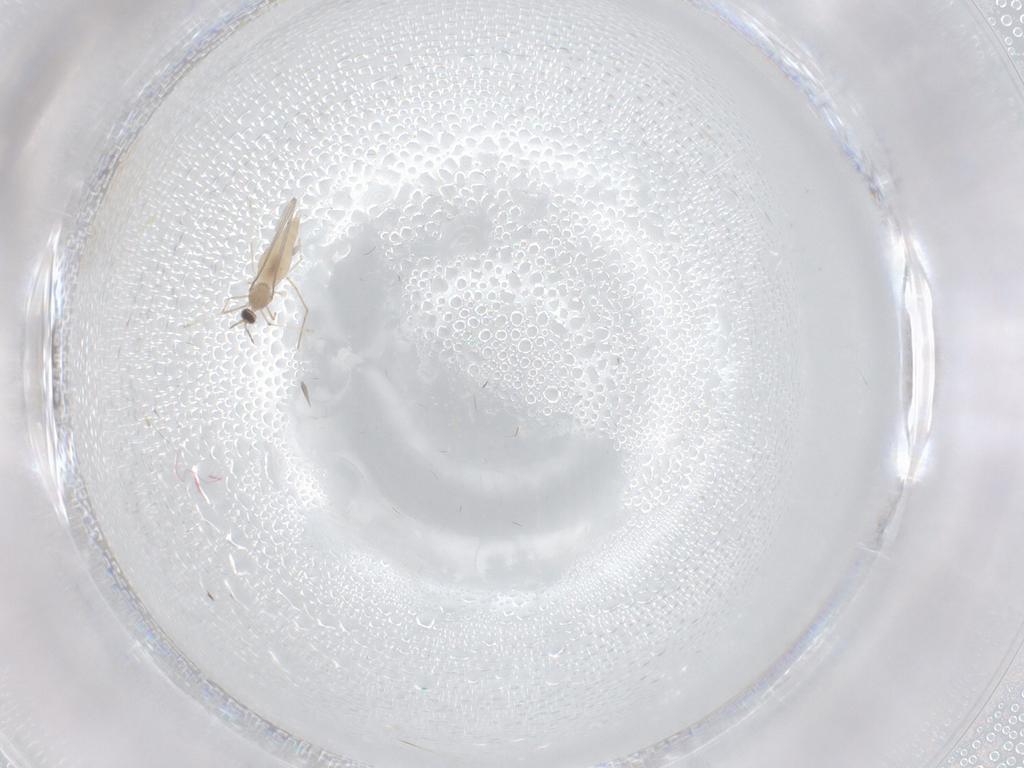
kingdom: Animalia
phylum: Arthropoda
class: Insecta
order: Diptera
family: Cecidomyiidae
